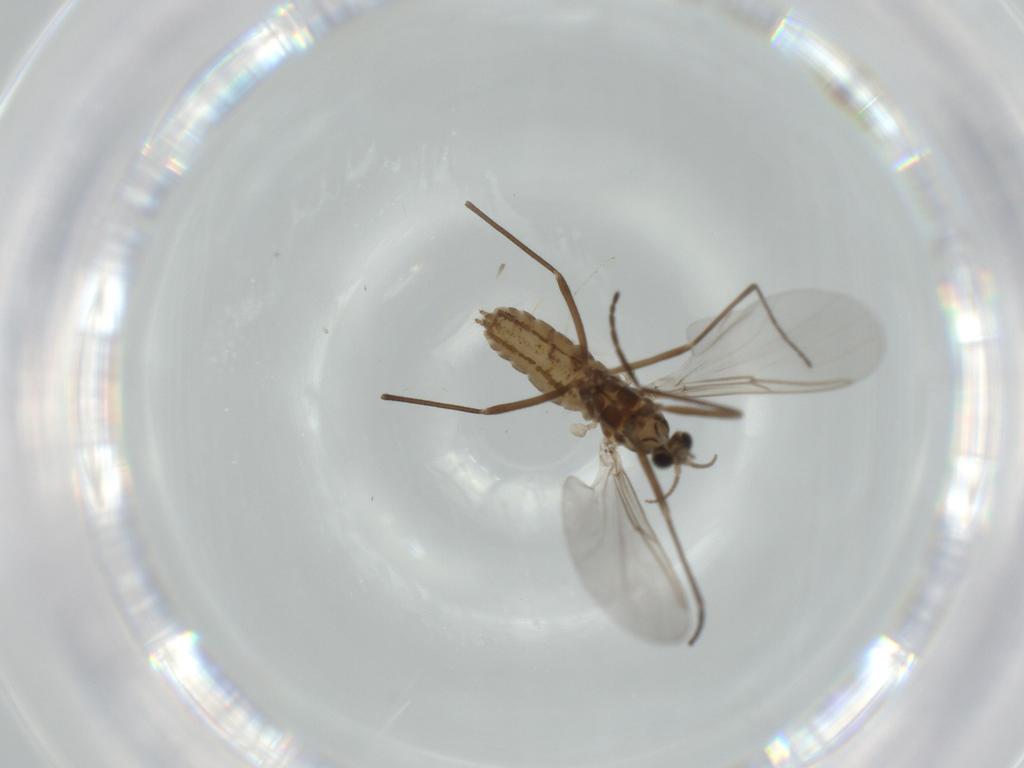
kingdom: Animalia
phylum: Arthropoda
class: Insecta
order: Diptera
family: Cecidomyiidae
